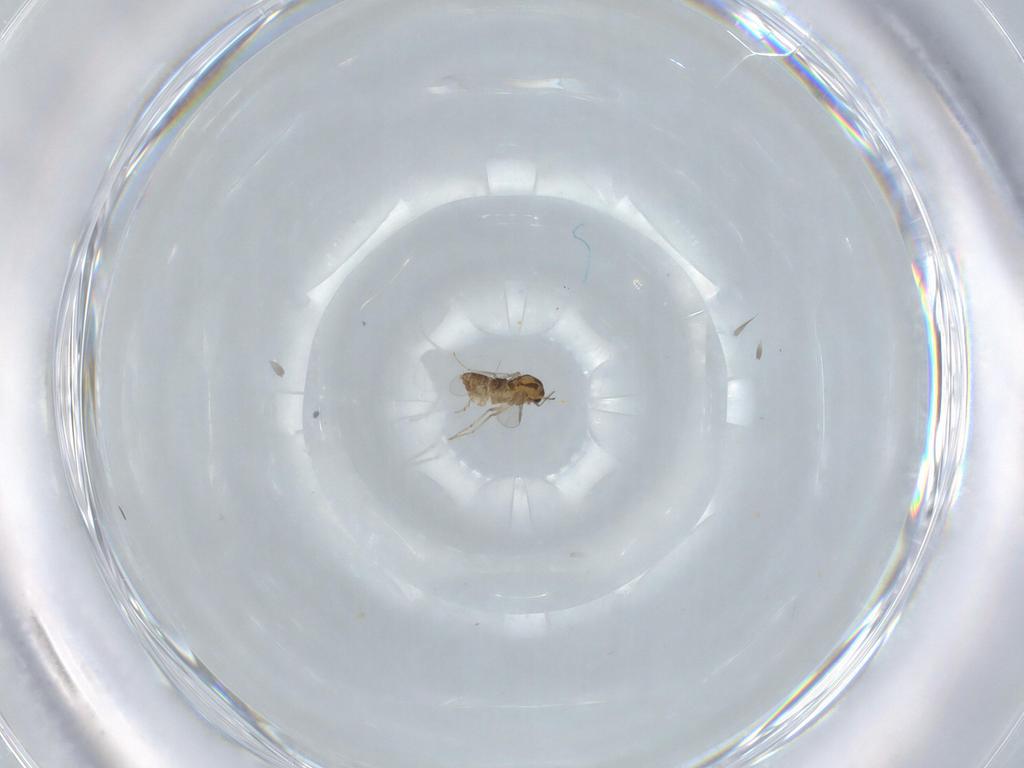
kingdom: Animalia
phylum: Arthropoda
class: Insecta
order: Diptera
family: Chironomidae
